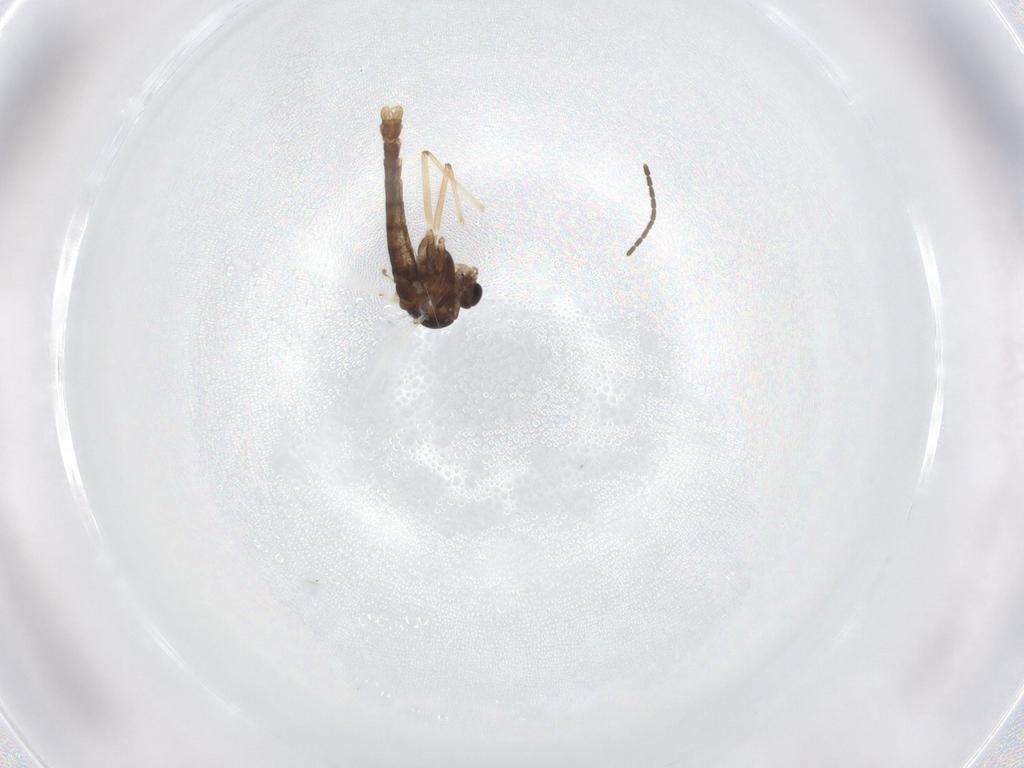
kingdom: Animalia
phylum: Arthropoda
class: Insecta
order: Diptera
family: Chironomidae
